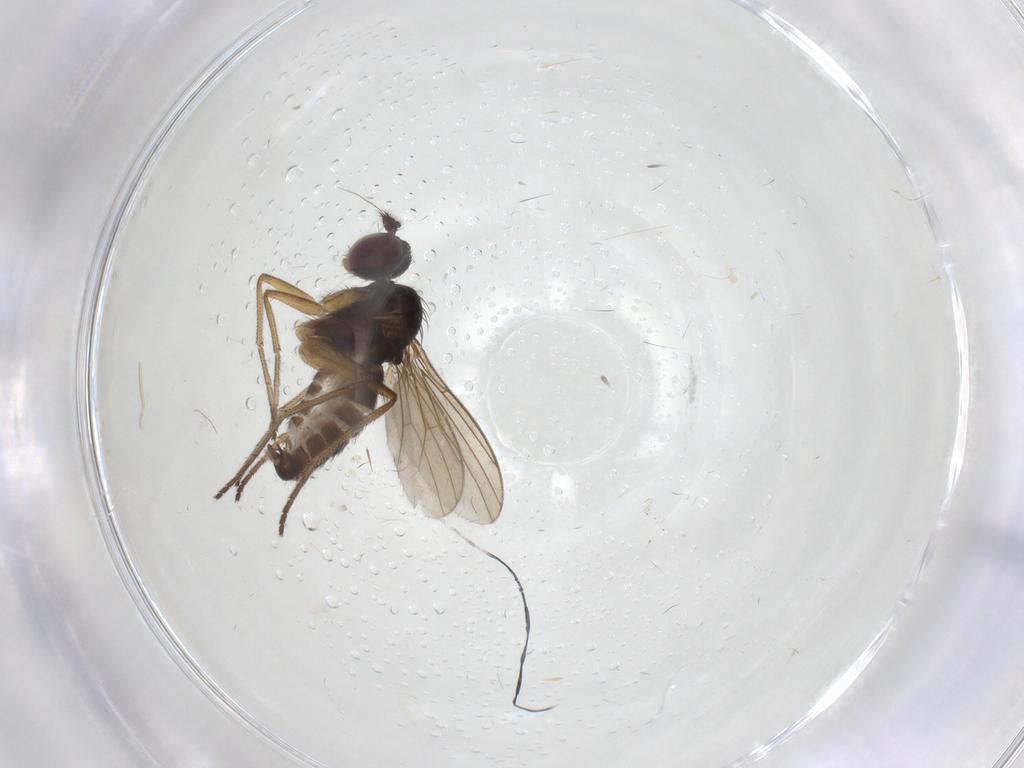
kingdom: Animalia
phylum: Arthropoda
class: Insecta
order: Diptera
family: Dolichopodidae
